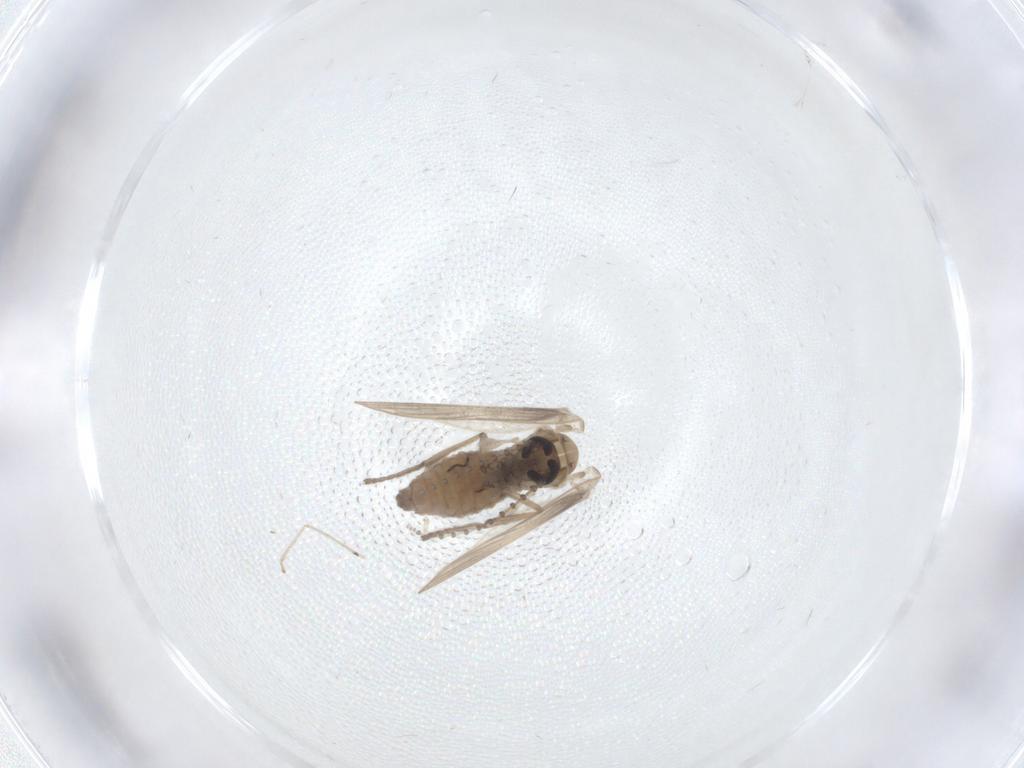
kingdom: Animalia
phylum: Arthropoda
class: Insecta
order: Diptera
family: Psychodidae
